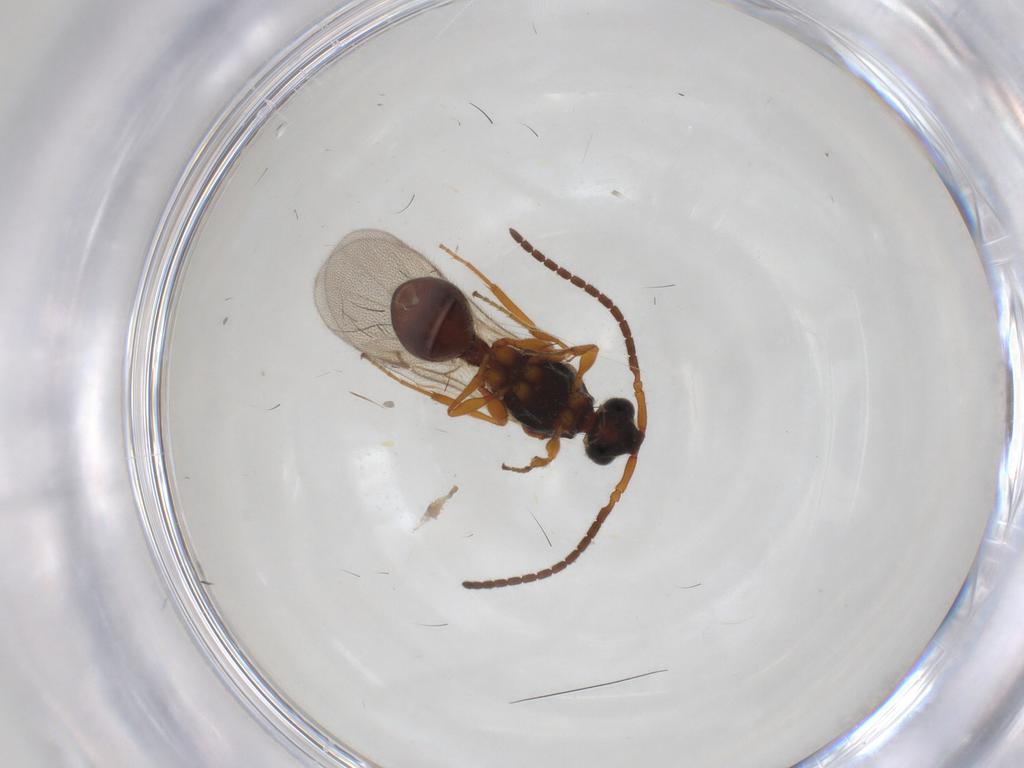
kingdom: Animalia
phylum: Arthropoda
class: Insecta
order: Hymenoptera
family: Diapriidae
